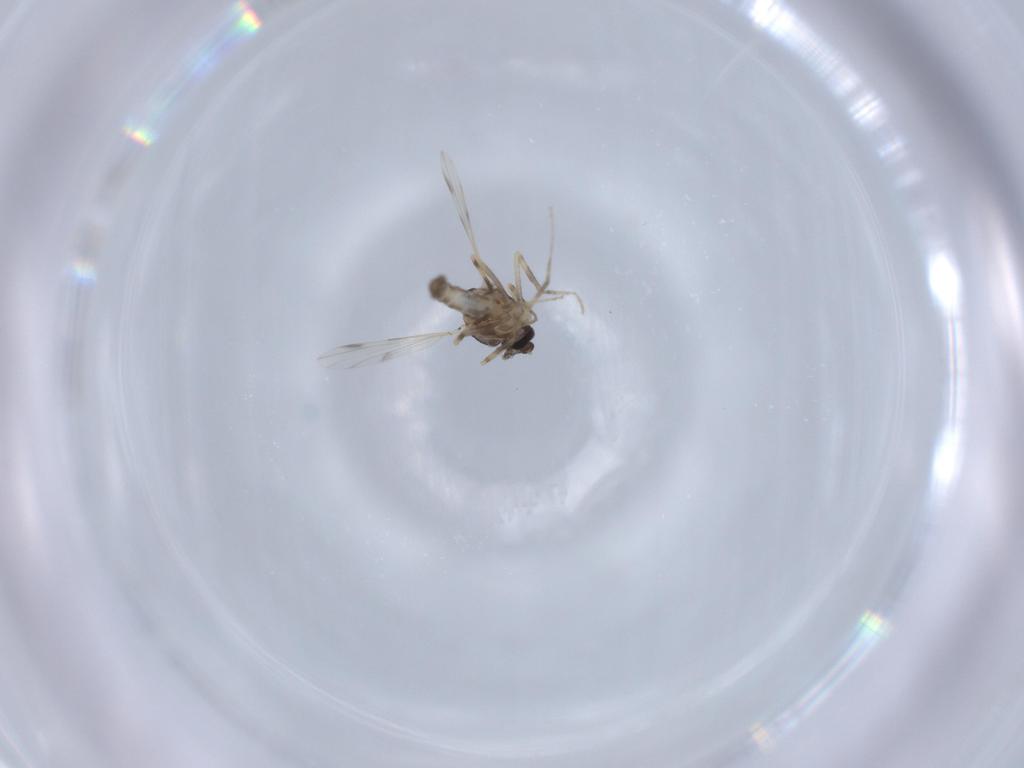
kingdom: Animalia
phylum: Arthropoda
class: Insecta
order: Diptera
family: Ceratopogonidae
